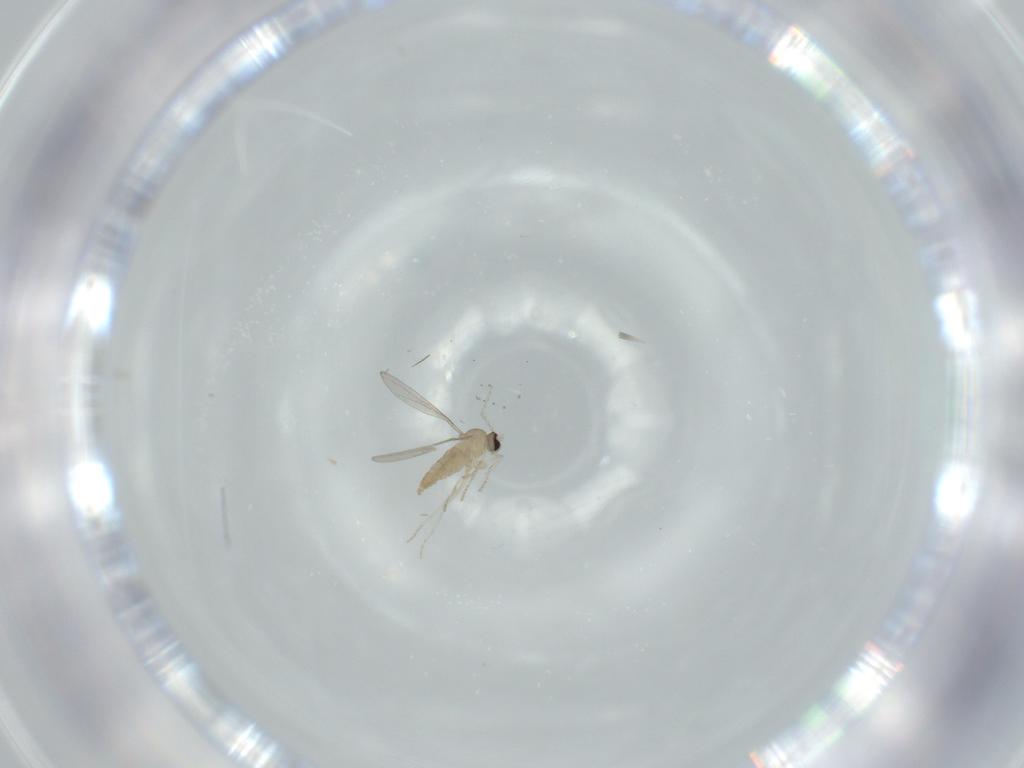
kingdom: Animalia
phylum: Arthropoda
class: Insecta
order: Diptera
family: Phoridae
